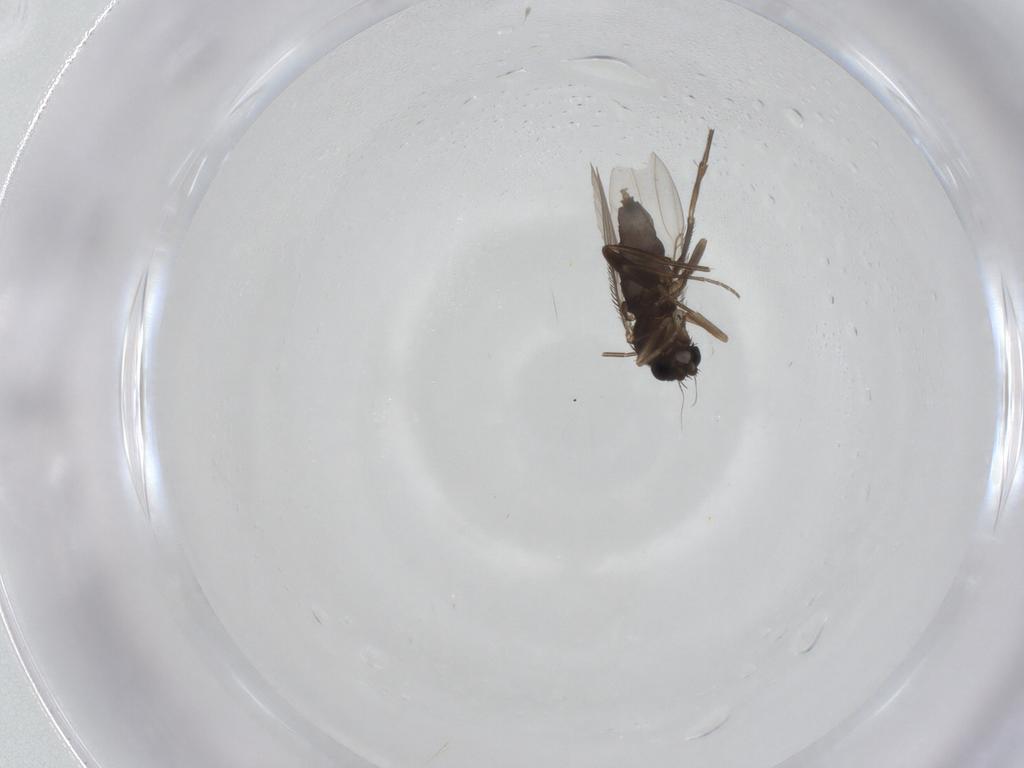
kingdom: Animalia
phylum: Arthropoda
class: Insecta
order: Diptera
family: Phoridae
